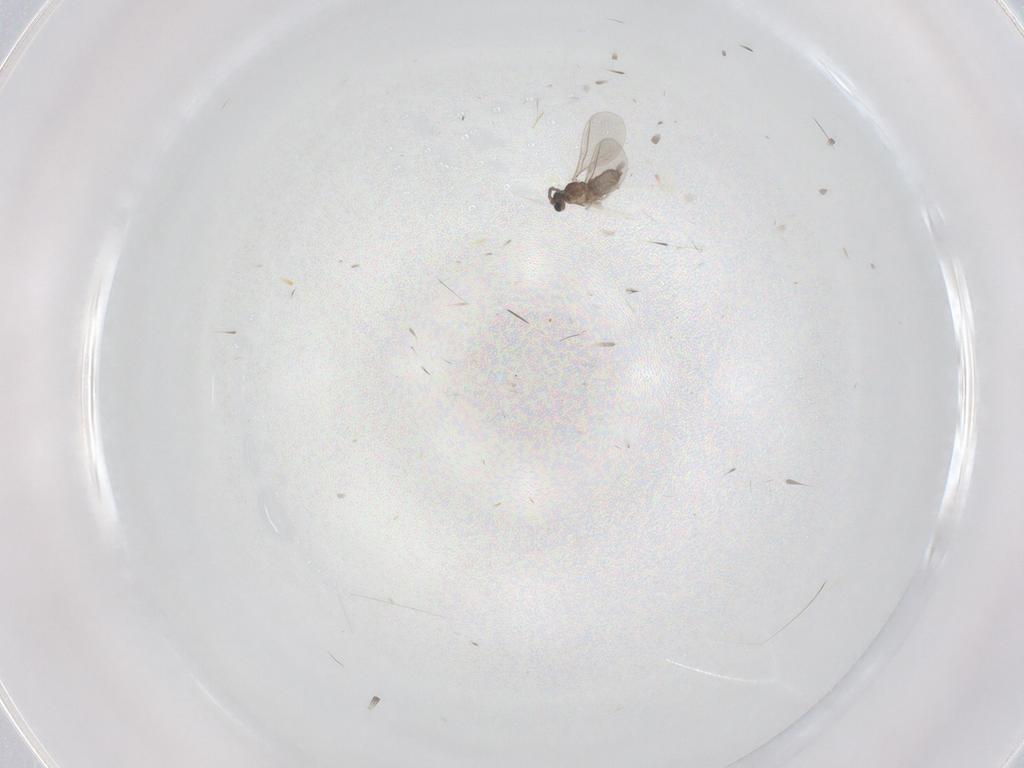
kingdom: Animalia
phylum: Arthropoda
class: Insecta
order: Diptera
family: Cecidomyiidae
